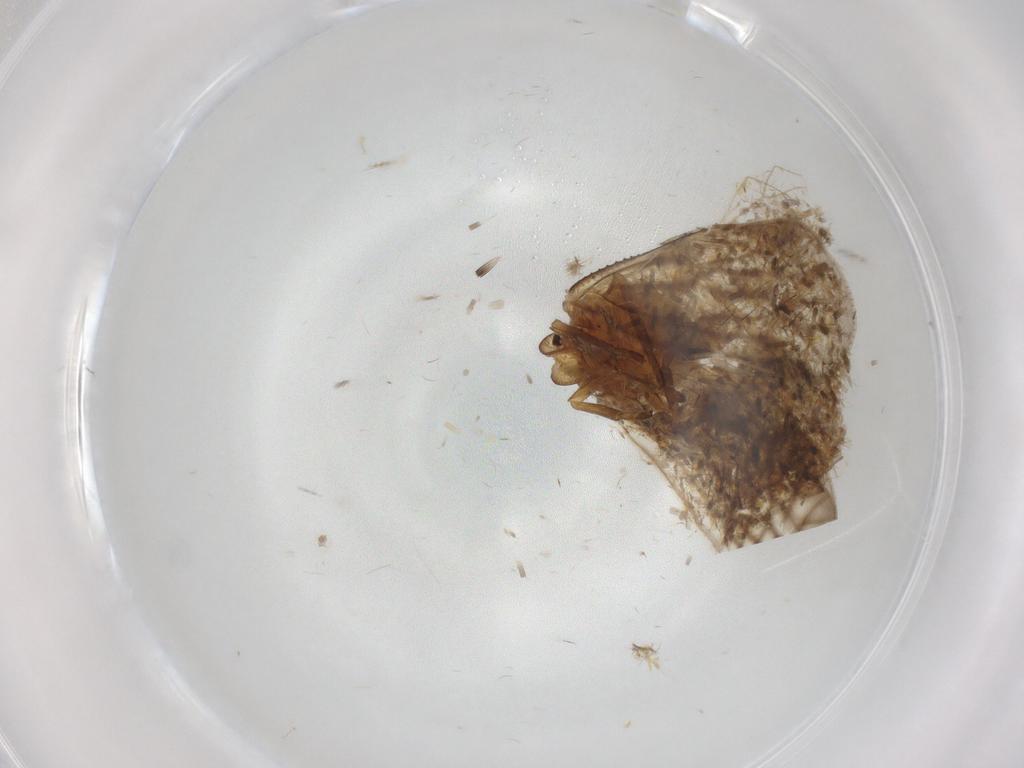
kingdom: Animalia
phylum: Arthropoda
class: Insecta
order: Hemiptera
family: Meenoplidae
